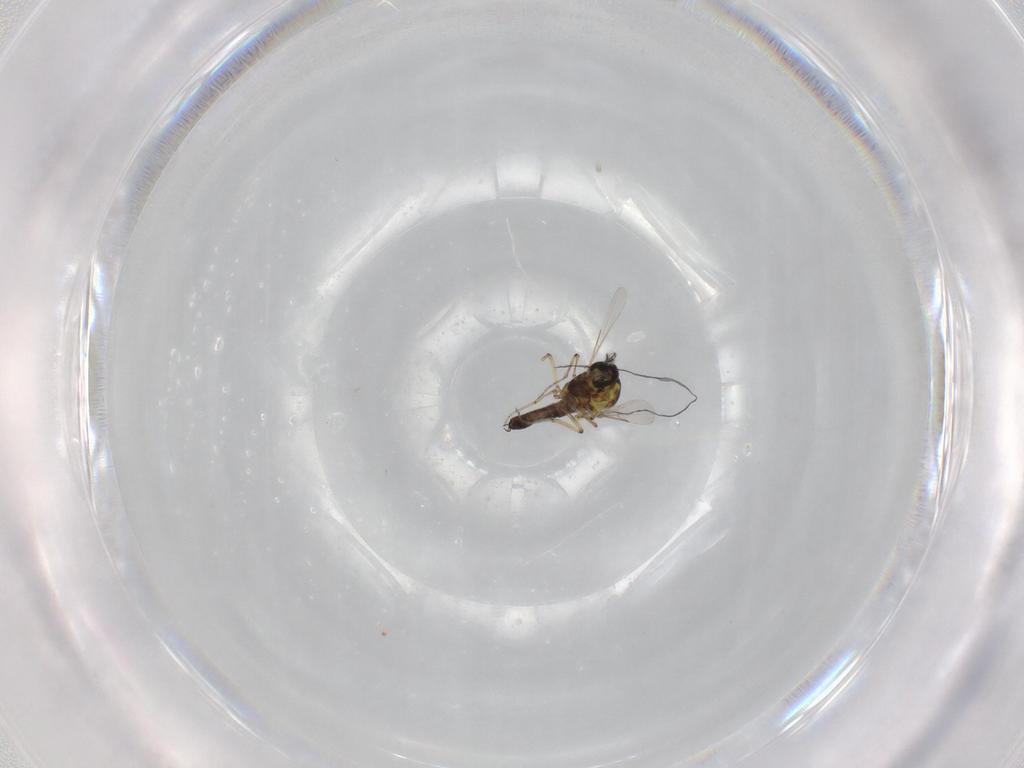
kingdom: Animalia
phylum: Arthropoda
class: Insecta
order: Diptera
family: Ceratopogonidae
